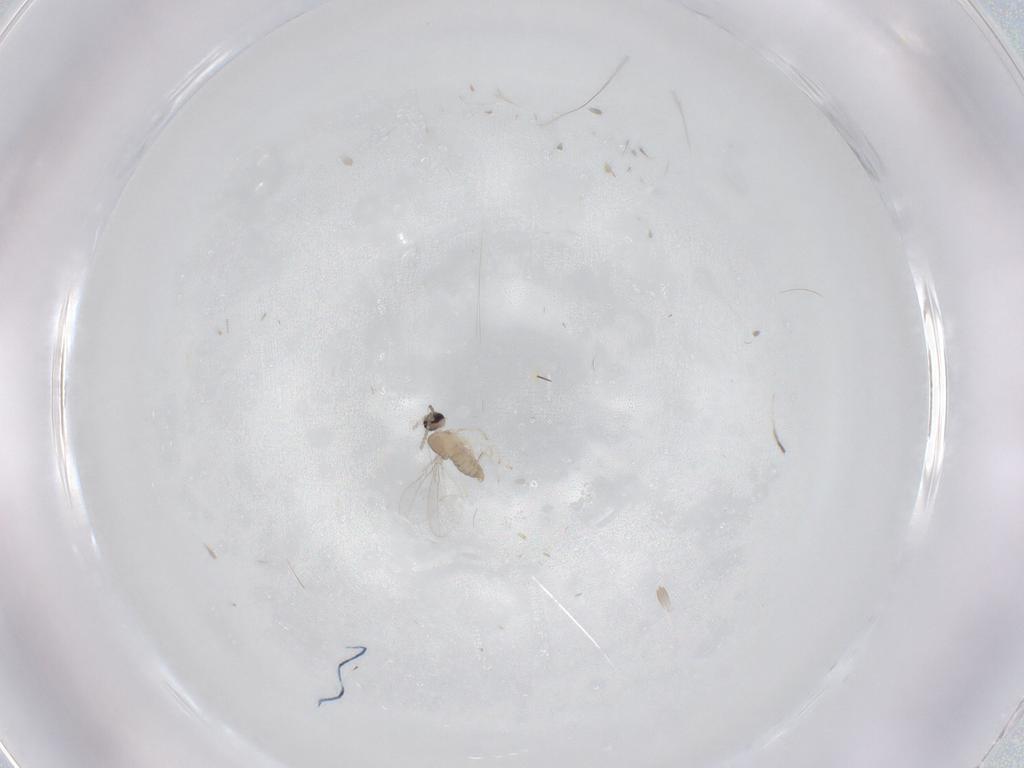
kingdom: Animalia
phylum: Arthropoda
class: Insecta
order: Diptera
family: Cecidomyiidae
